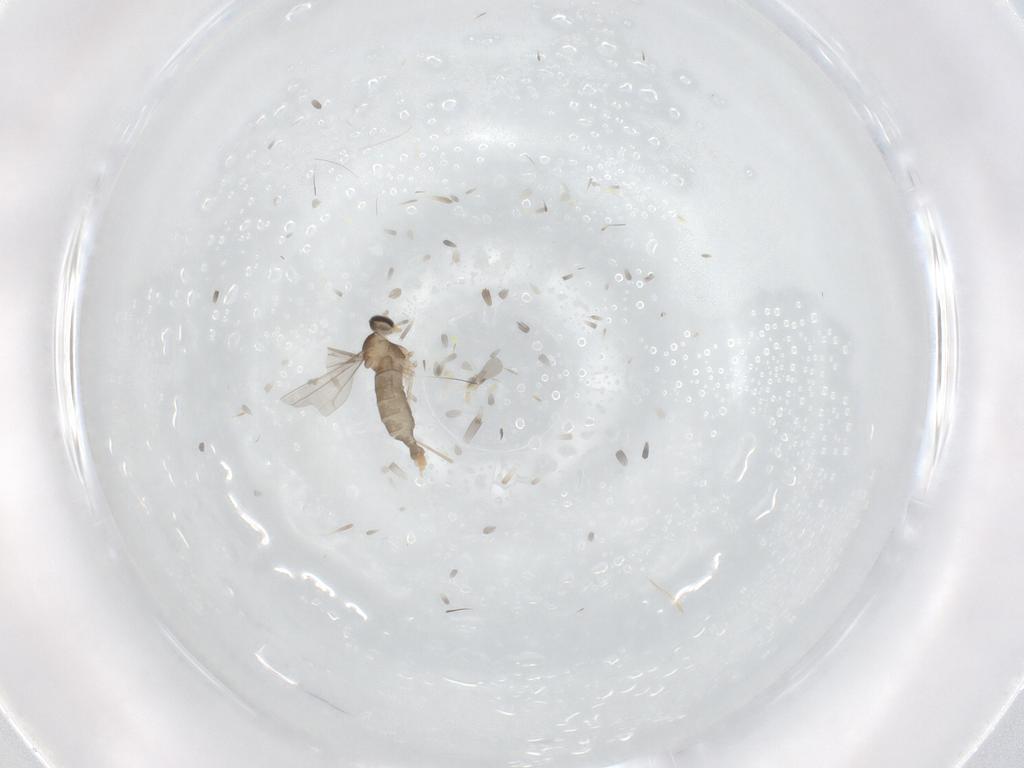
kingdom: Animalia
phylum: Arthropoda
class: Insecta
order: Diptera
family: Cecidomyiidae
